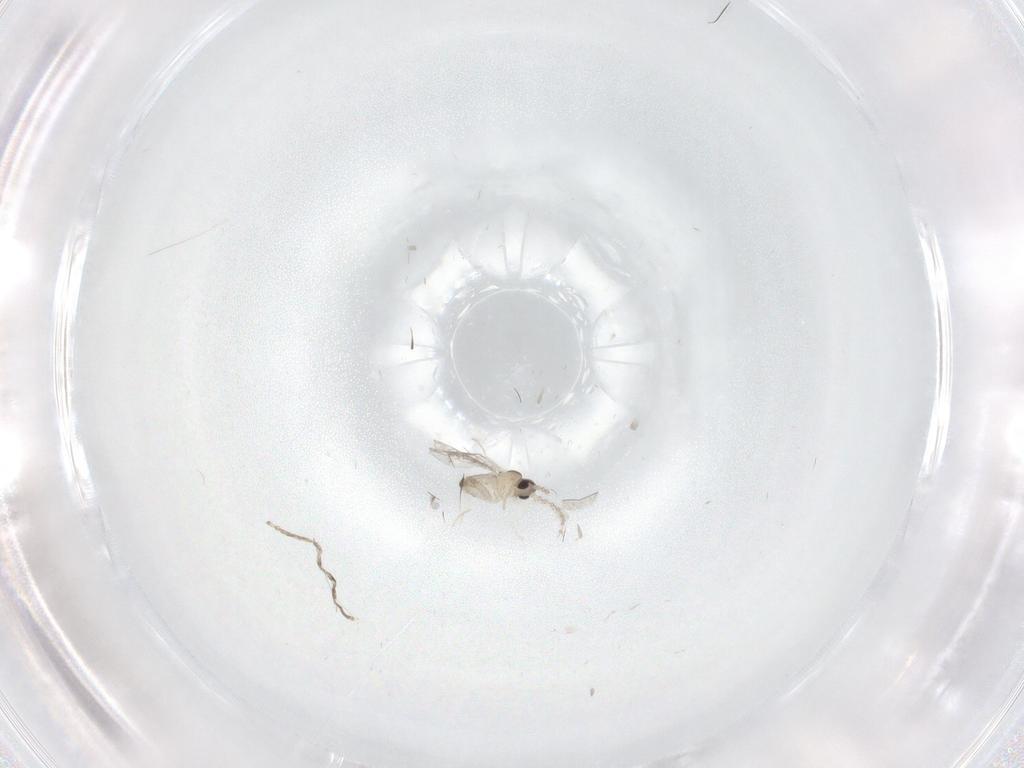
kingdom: Animalia
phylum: Arthropoda
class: Insecta
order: Diptera
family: Cecidomyiidae
